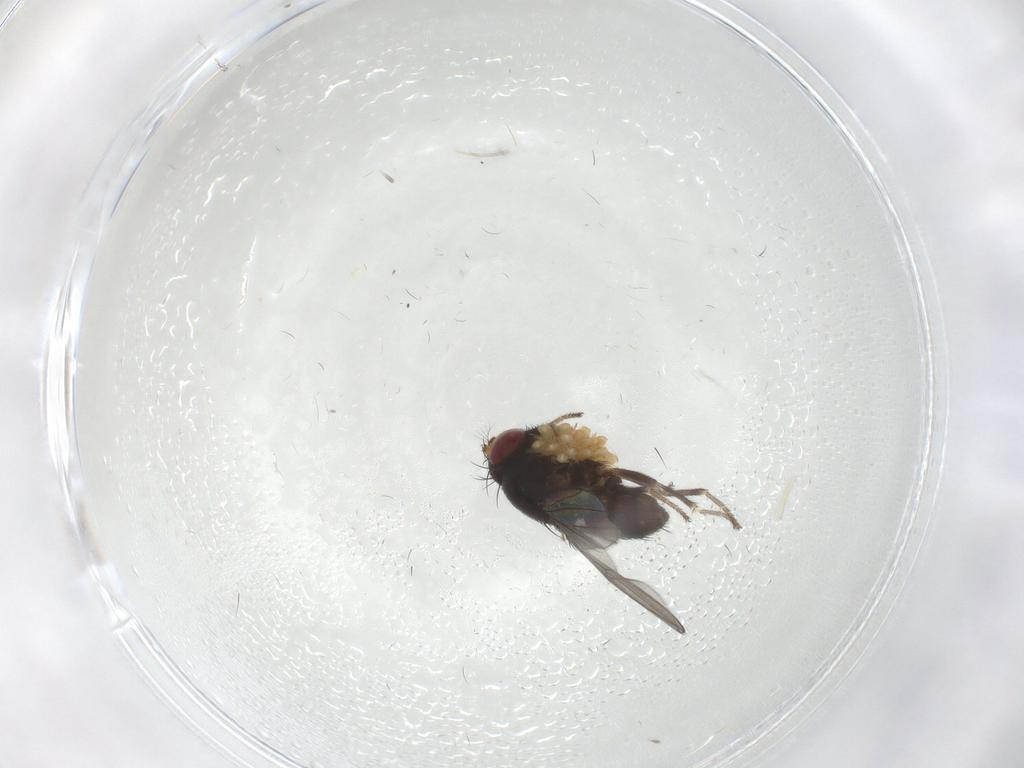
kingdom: Animalia
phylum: Arthropoda
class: Insecta
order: Diptera
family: Ephydridae
